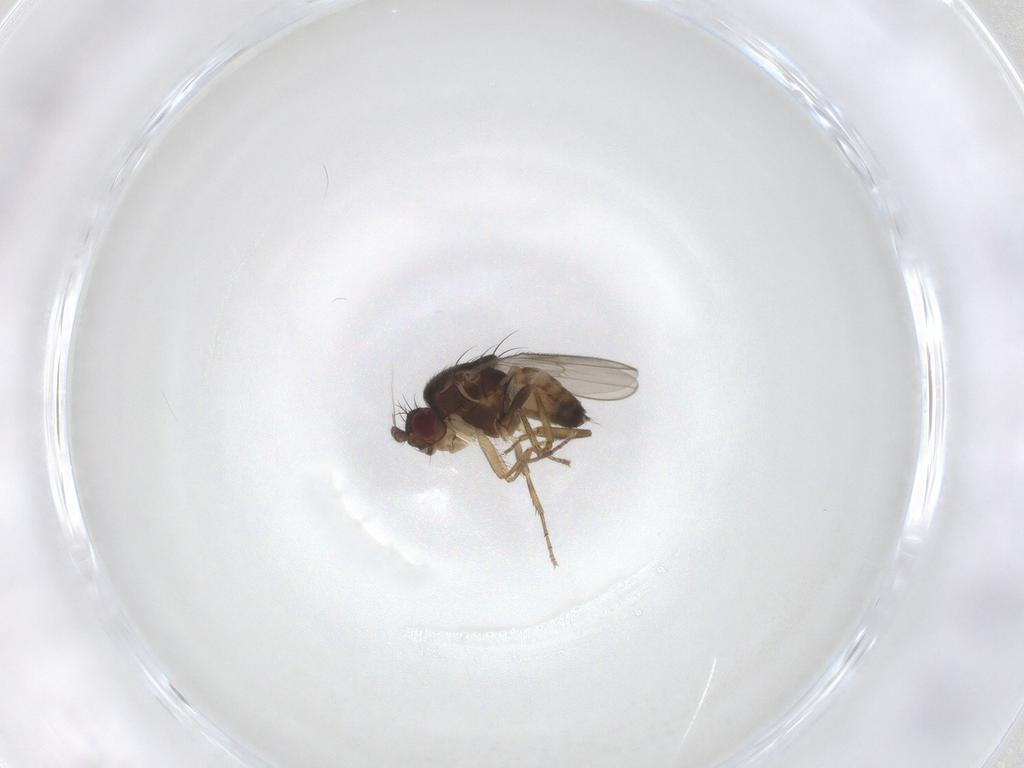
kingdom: Animalia
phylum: Arthropoda
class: Insecta
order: Diptera
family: Sphaeroceridae
